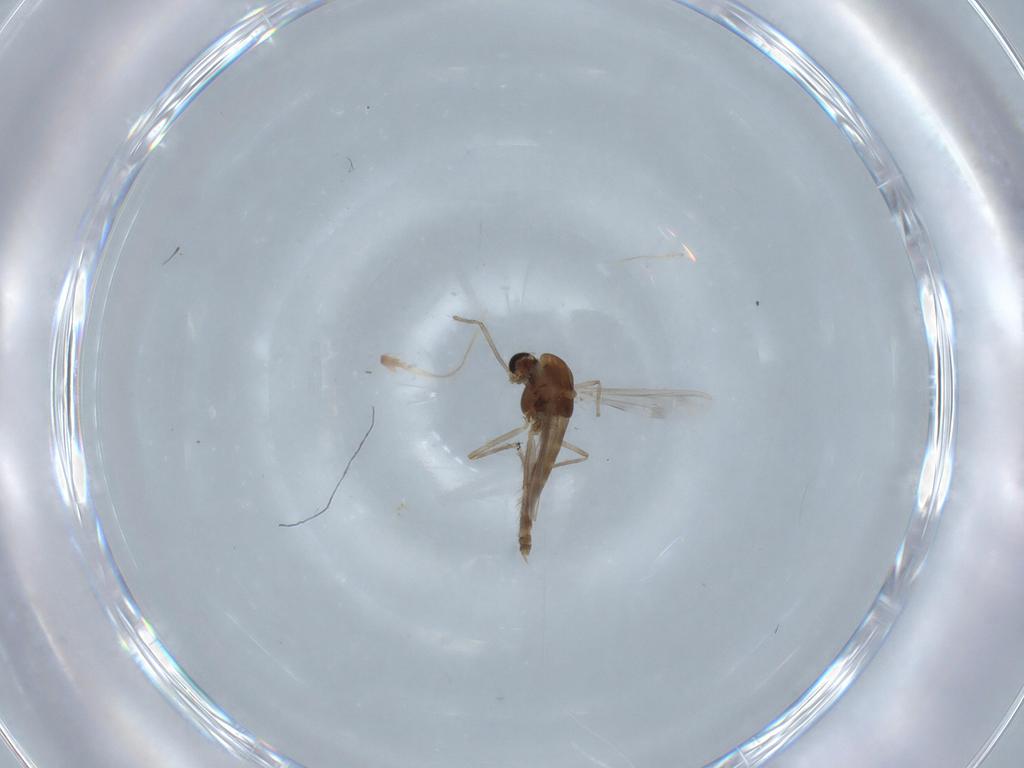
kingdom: Animalia
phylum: Arthropoda
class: Insecta
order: Diptera
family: Chironomidae
